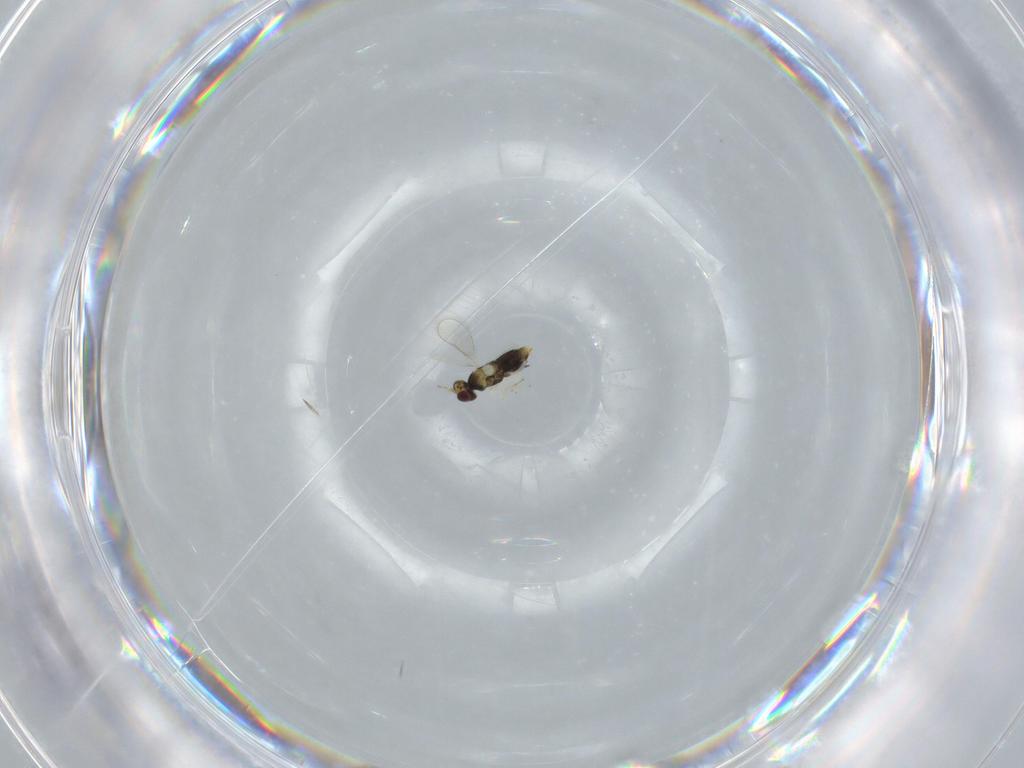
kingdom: Animalia
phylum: Arthropoda
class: Insecta
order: Hymenoptera
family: Aphelinidae
